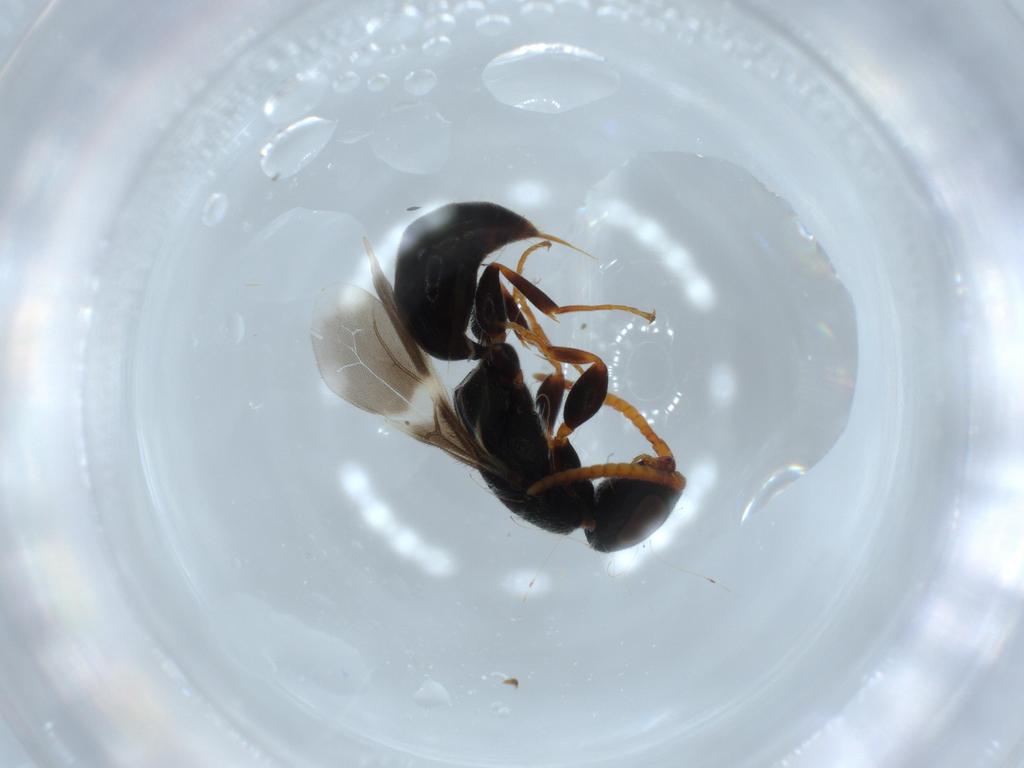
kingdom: Animalia
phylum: Arthropoda
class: Insecta
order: Hymenoptera
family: Bethylidae
